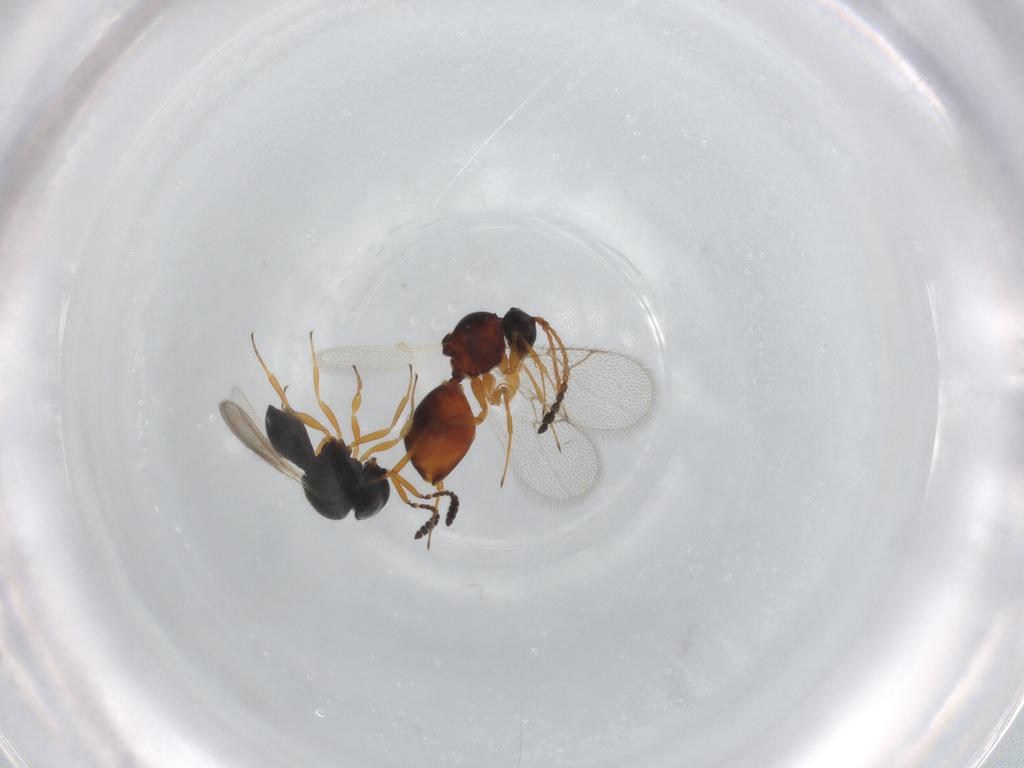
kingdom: Animalia
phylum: Arthropoda
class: Insecta
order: Hymenoptera
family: Figitidae
